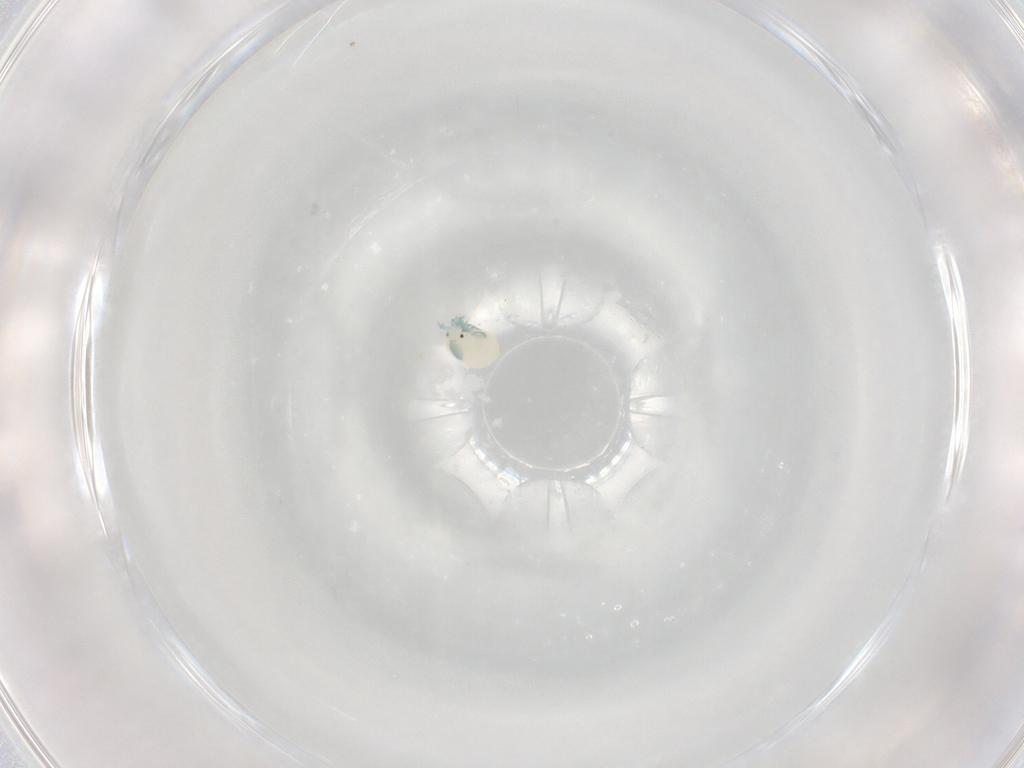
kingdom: Animalia
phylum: Arthropoda
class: Arachnida
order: Trombidiformes
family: Arrenuridae
